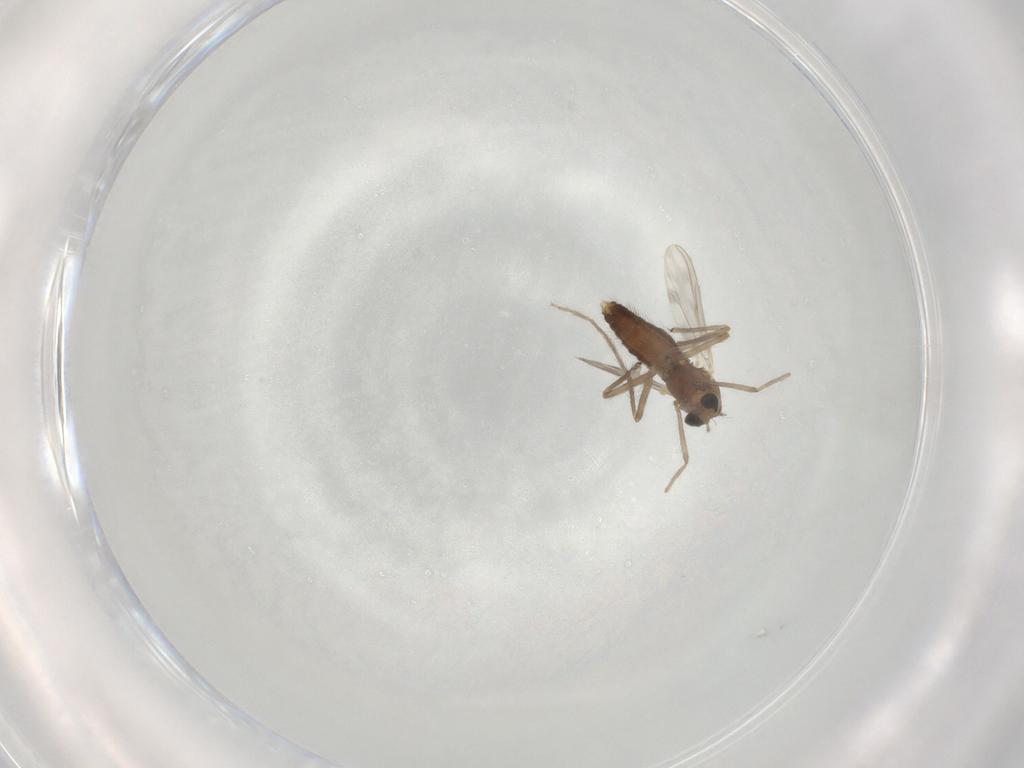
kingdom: Animalia
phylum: Arthropoda
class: Insecta
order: Diptera
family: Chironomidae
